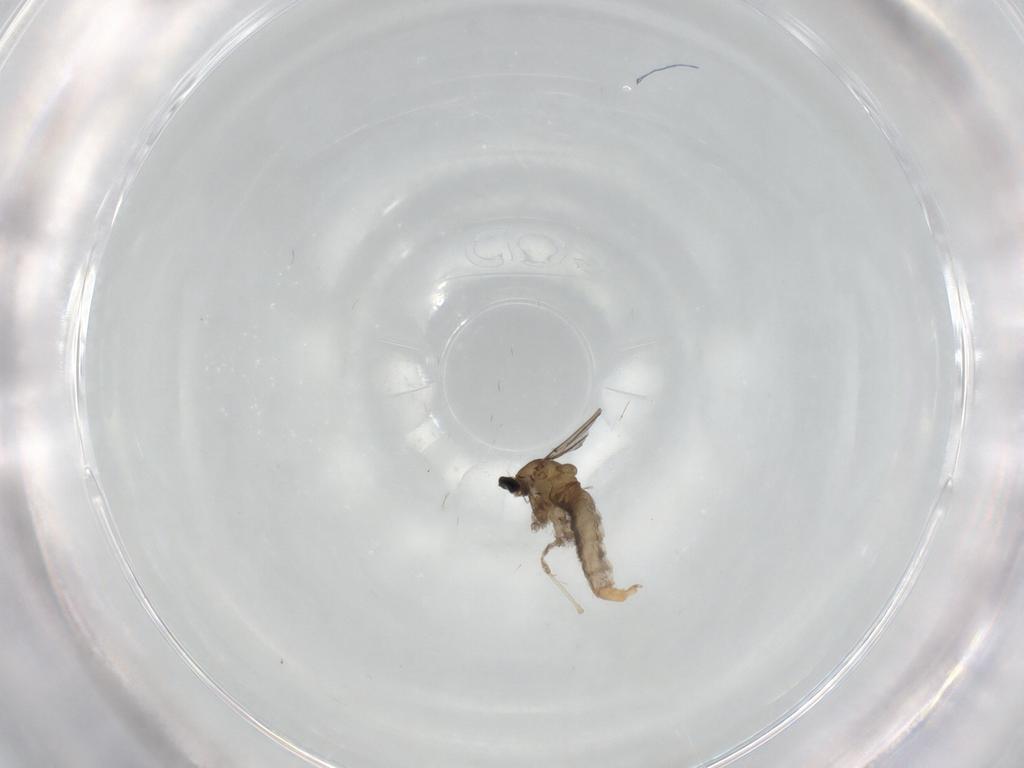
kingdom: Animalia
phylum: Arthropoda
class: Insecta
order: Diptera
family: Cecidomyiidae
